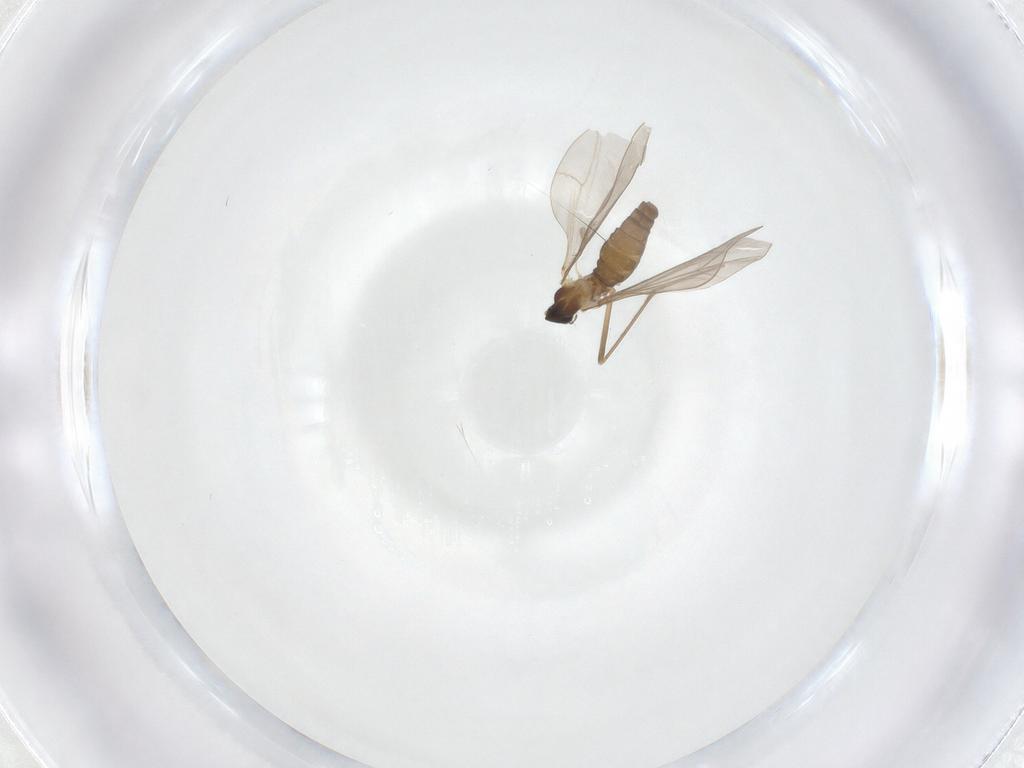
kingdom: Animalia
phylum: Arthropoda
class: Insecta
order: Diptera
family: Cecidomyiidae
